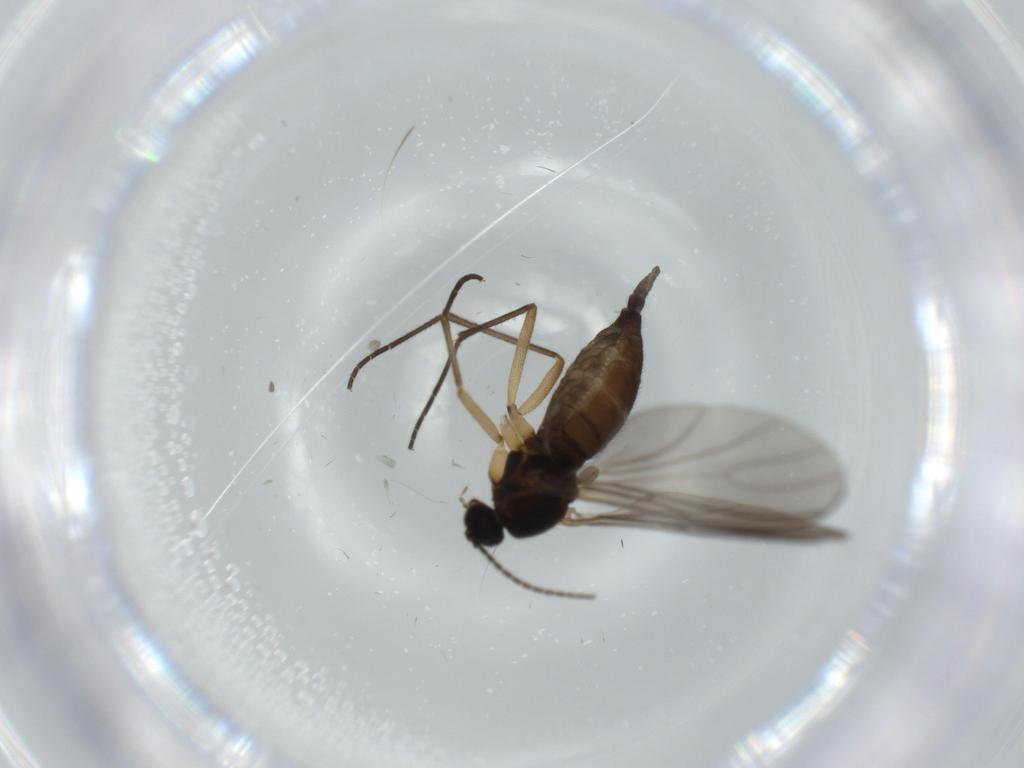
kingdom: Animalia
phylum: Arthropoda
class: Insecta
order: Diptera
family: Sciaridae
